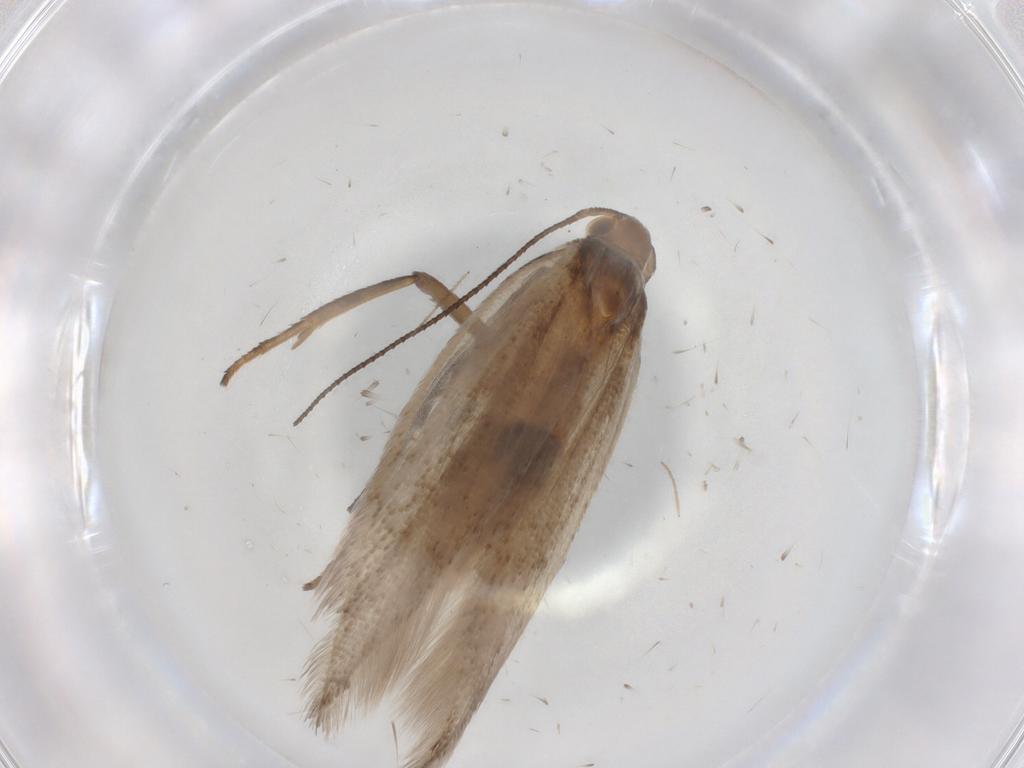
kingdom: Animalia
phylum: Arthropoda
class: Insecta
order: Lepidoptera
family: Gelechiidae
